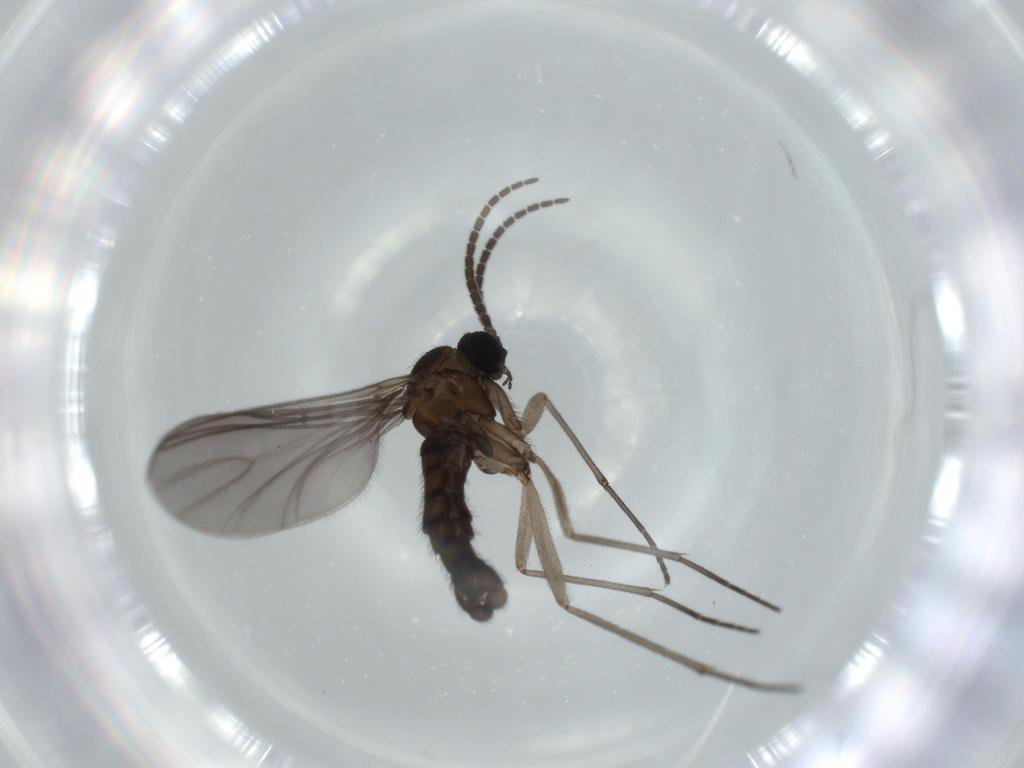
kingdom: Animalia
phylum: Arthropoda
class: Insecta
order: Diptera
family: Sciaridae
